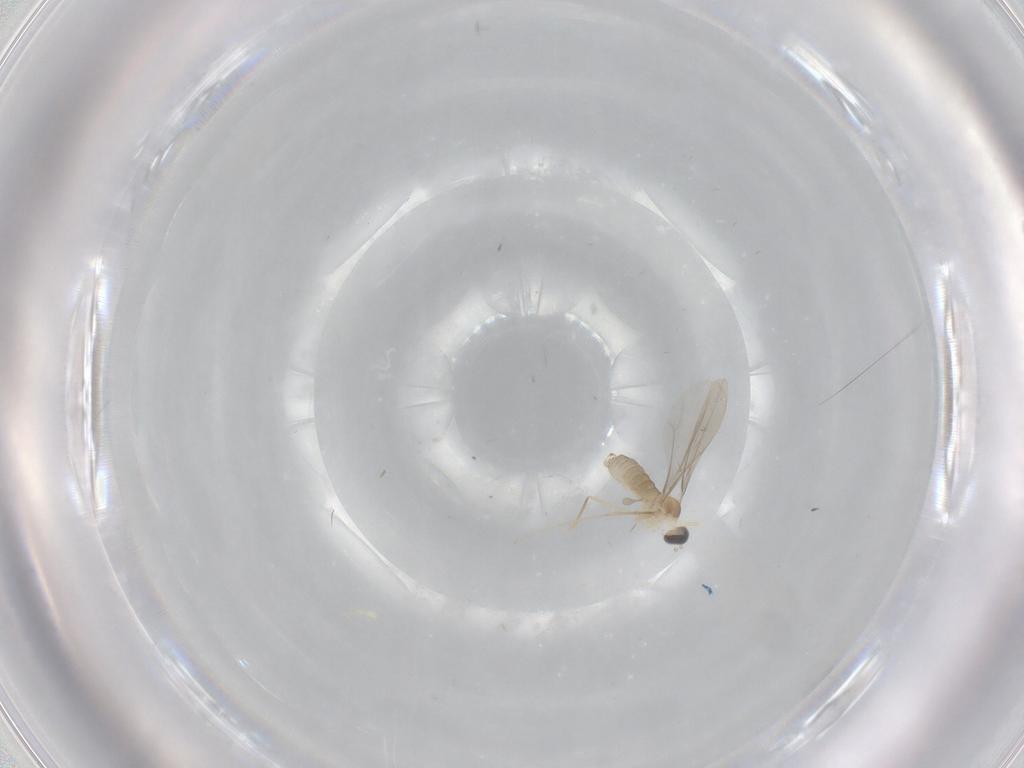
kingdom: Animalia
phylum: Arthropoda
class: Insecta
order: Diptera
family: Cecidomyiidae
